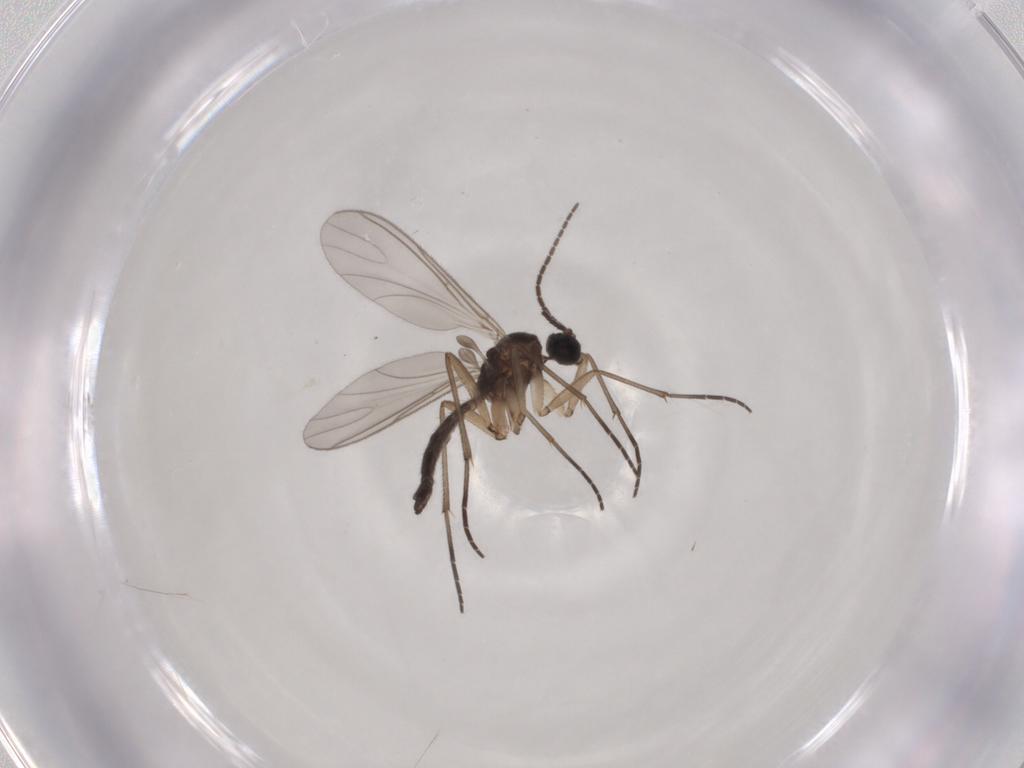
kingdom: Animalia
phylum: Arthropoda
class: Insecta
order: Diptera
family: Sciaridae
